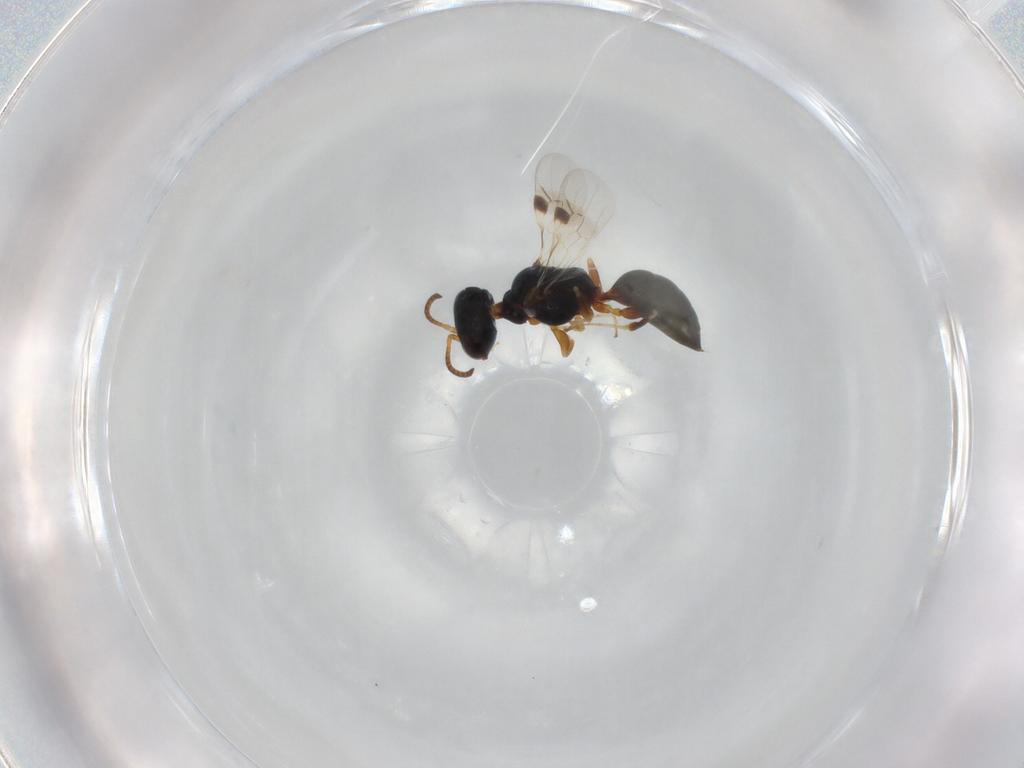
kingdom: Animalia
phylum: Arthropoda
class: Insecta
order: Hymenoptera
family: Pemphredonidae
